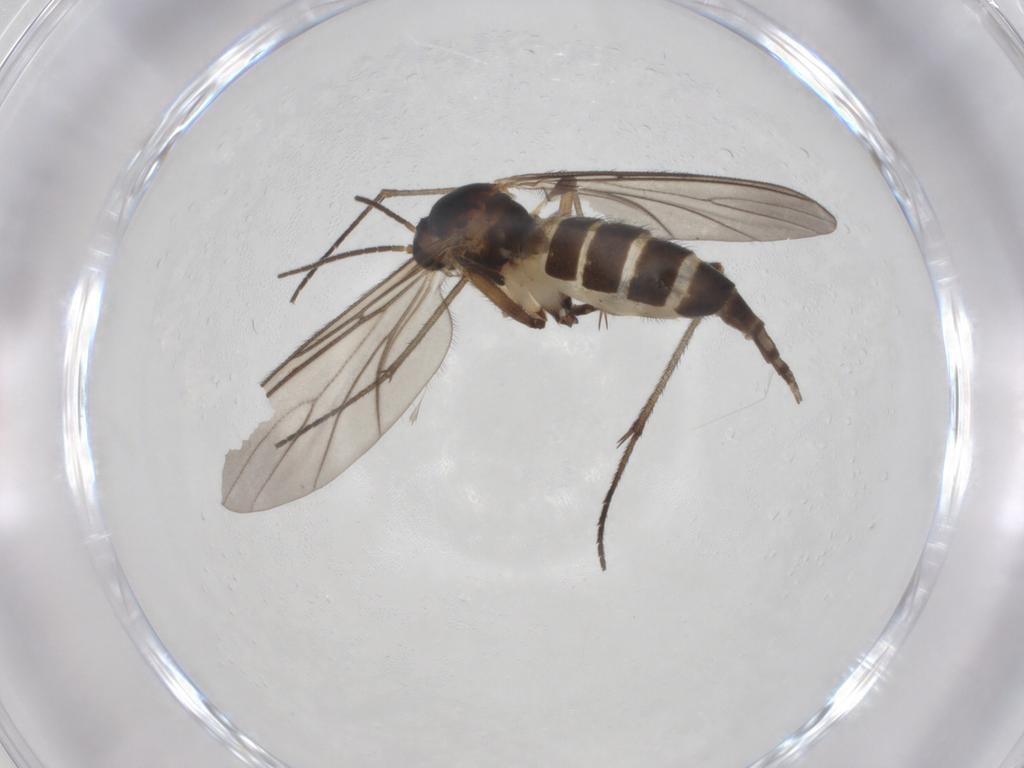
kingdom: Animalia
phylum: Arthropoda
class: Insecta
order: Diptera
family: Sciaridae
